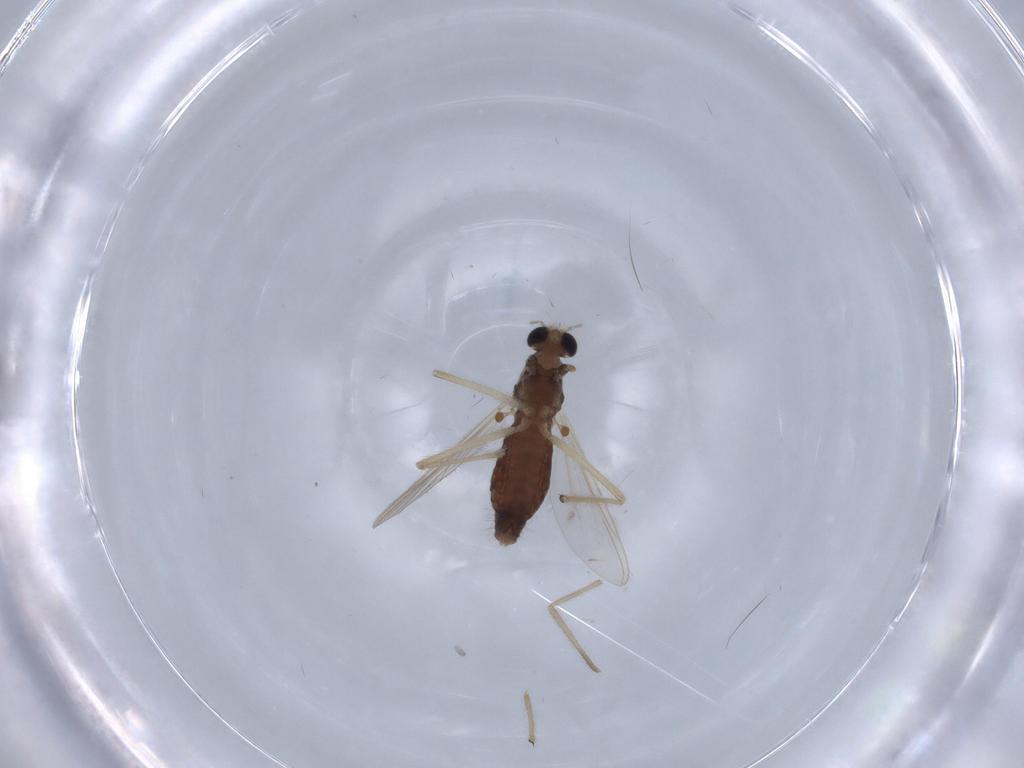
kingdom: Animalia
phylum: Arthropoda
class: Insecta
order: Diptera
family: Chironomidae
